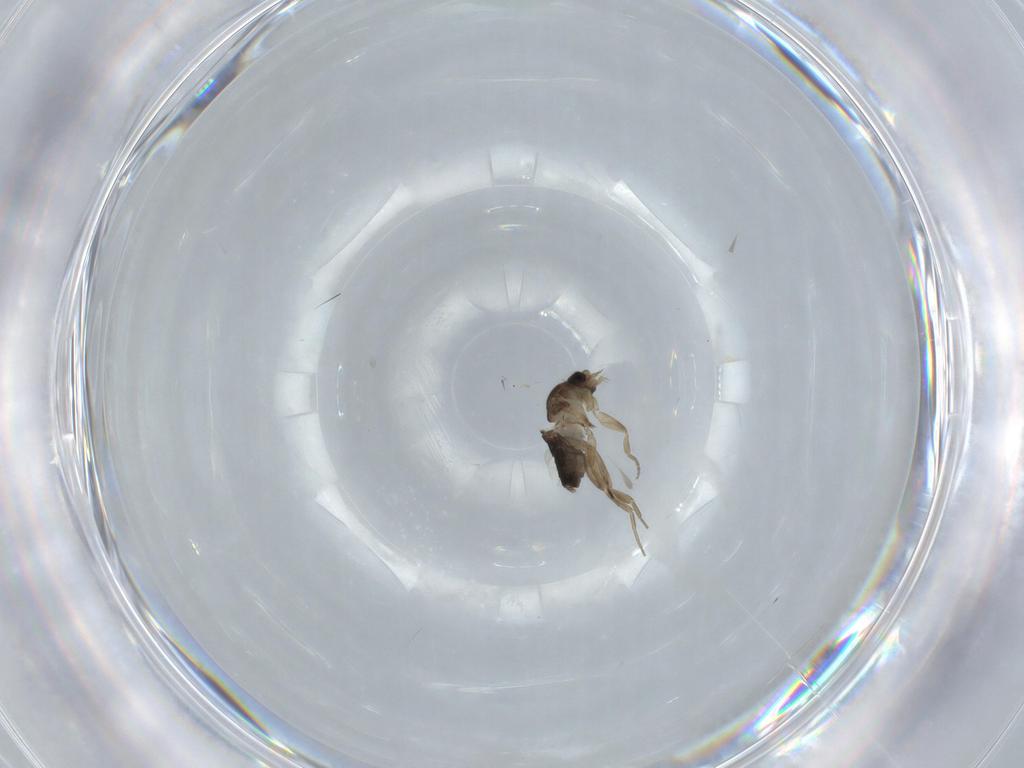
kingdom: Animalia
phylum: Arthropoda
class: Insecta
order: Diptera
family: Phoridae
